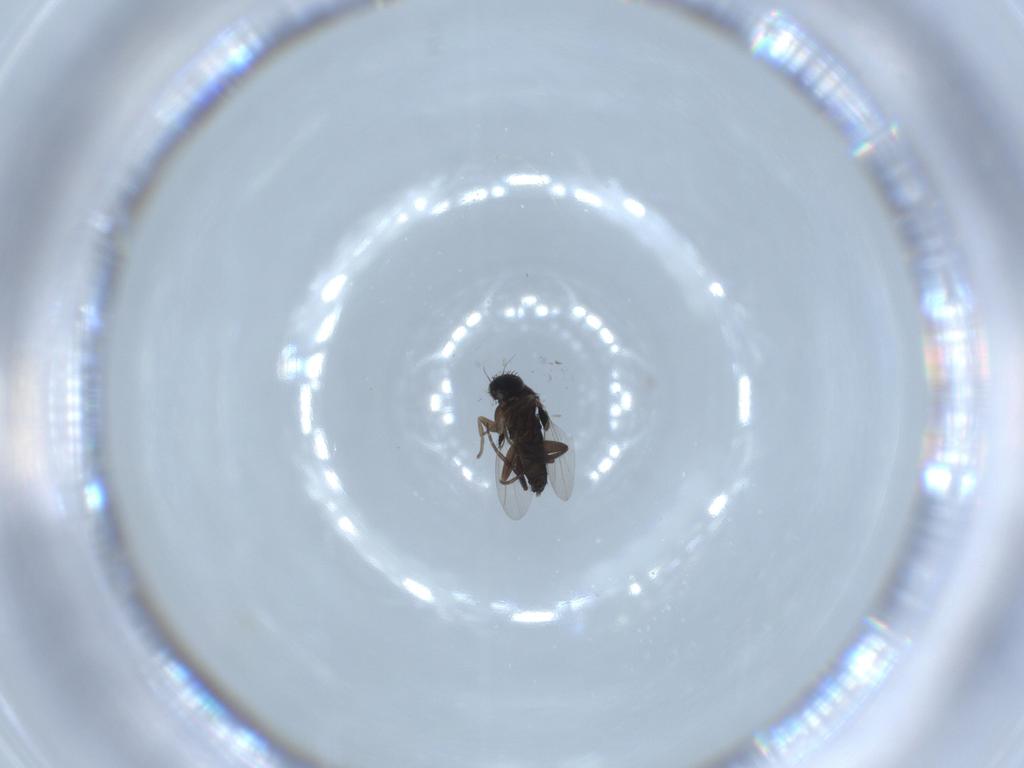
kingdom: Animalia
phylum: Arthropoda
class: Insecta
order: Diptera
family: Phoridae
